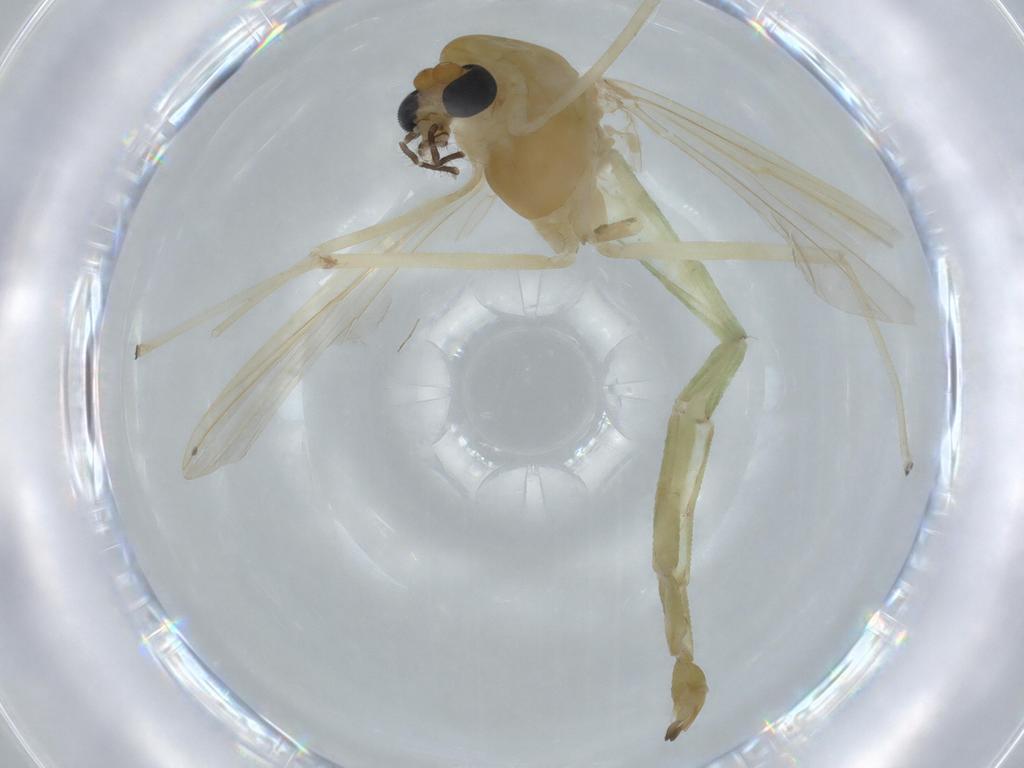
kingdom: Animalia
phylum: Arthropoda
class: Insecta
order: Diptera
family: Chironomidae
